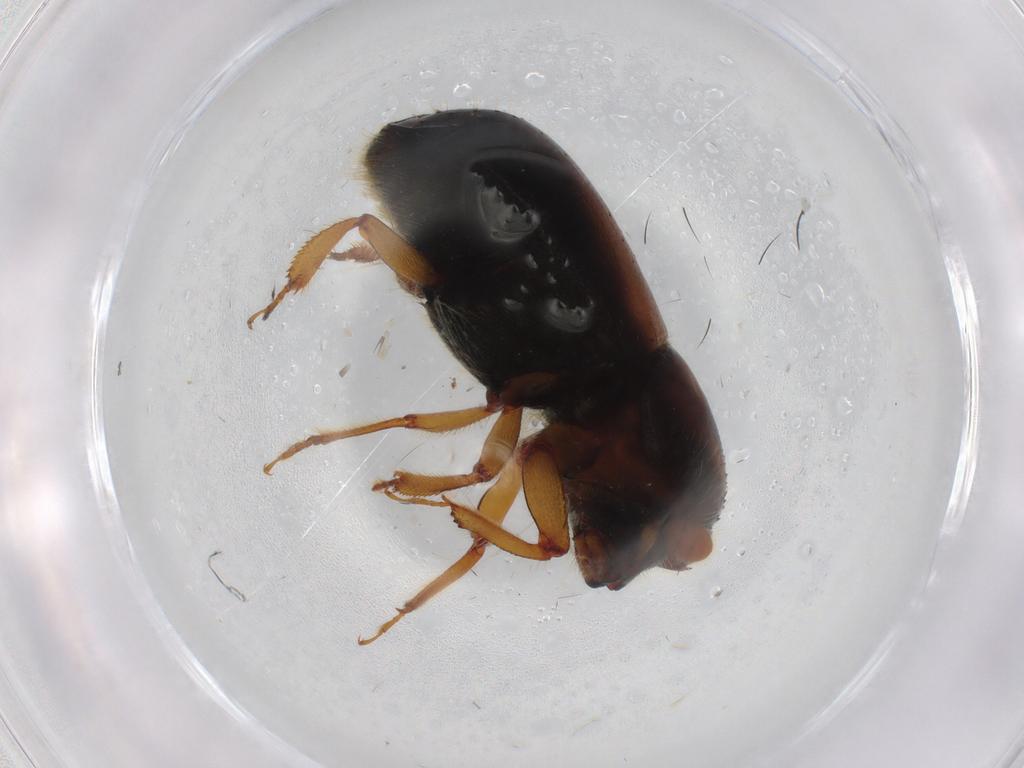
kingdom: Animalia
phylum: Arthropoda
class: Insecta
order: Coleoptera
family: Curculionidae
